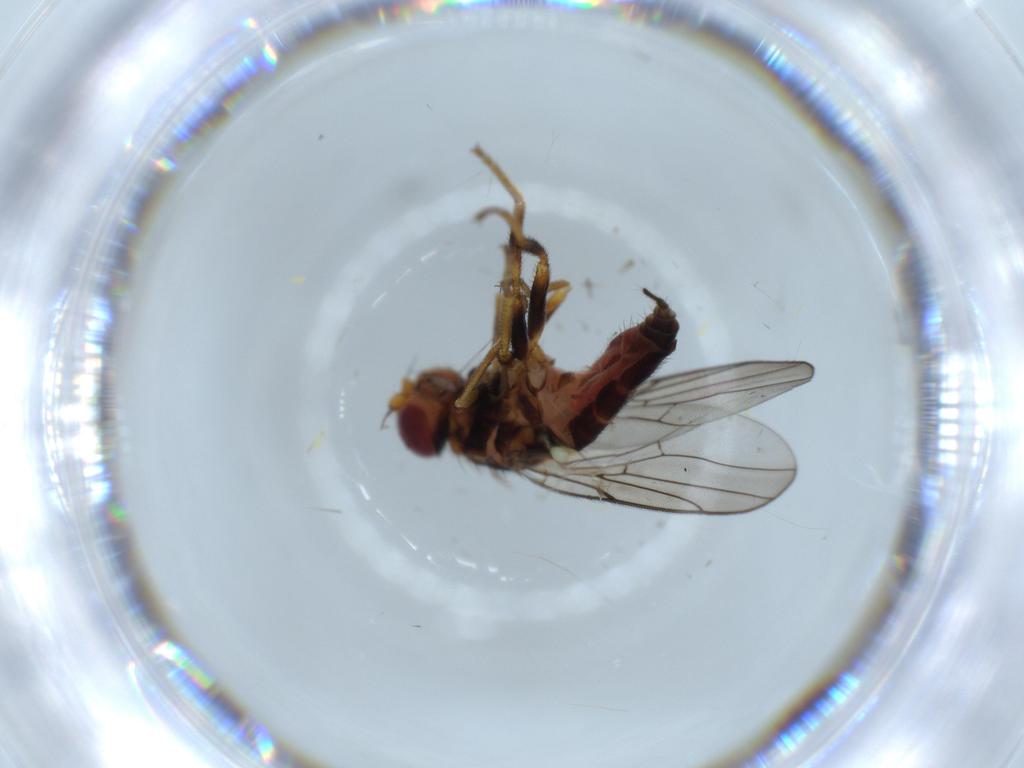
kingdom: Animalia
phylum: Arthropoda
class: Insecta
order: Diptera
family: Chloropidae
